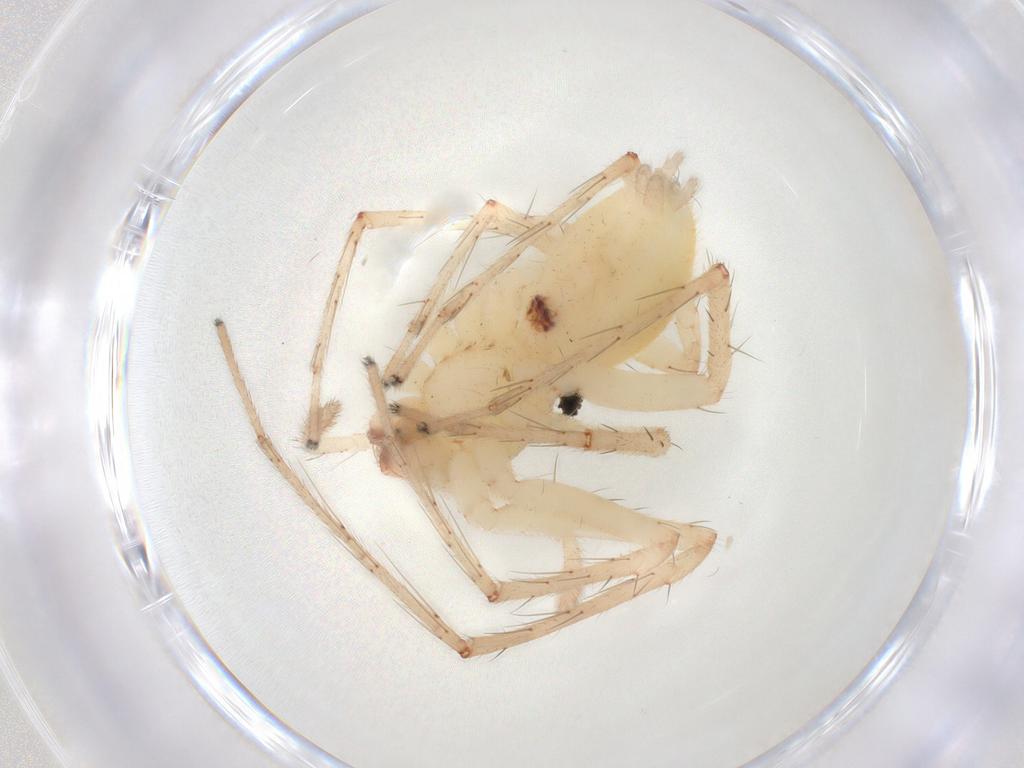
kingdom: Animalia
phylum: Arthropoda
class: Arachnida
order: Araneae
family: Anyphaenidae
